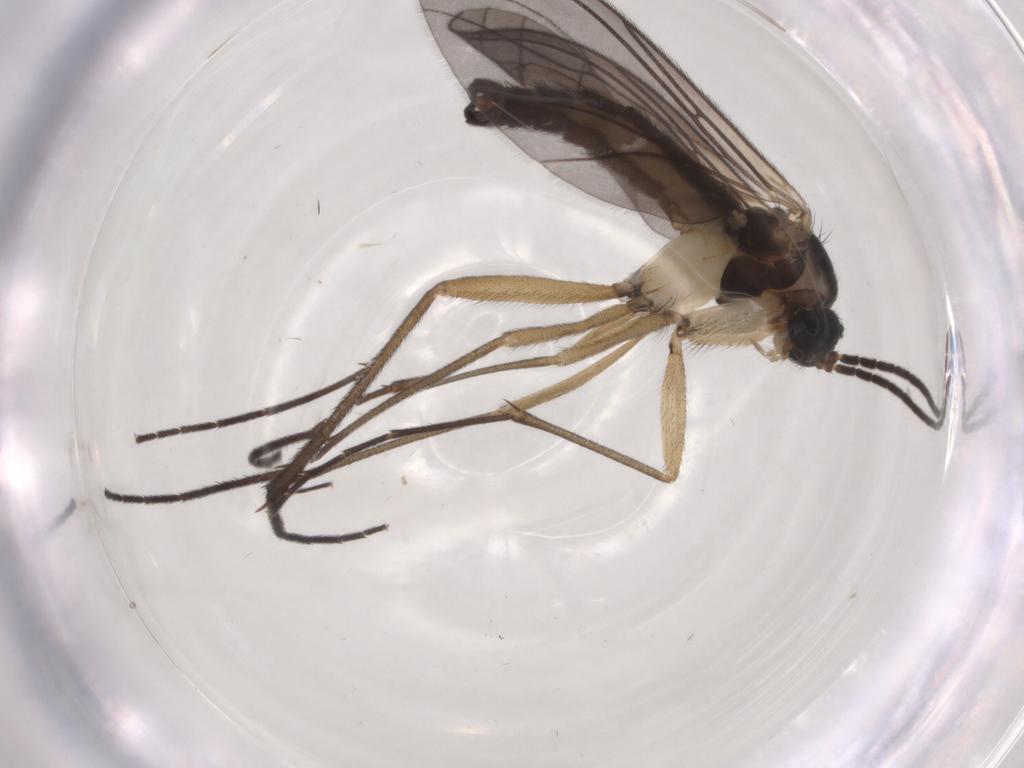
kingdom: Animalia
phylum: Arthropoda
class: Insecta
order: Diptera
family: Sciaridae
